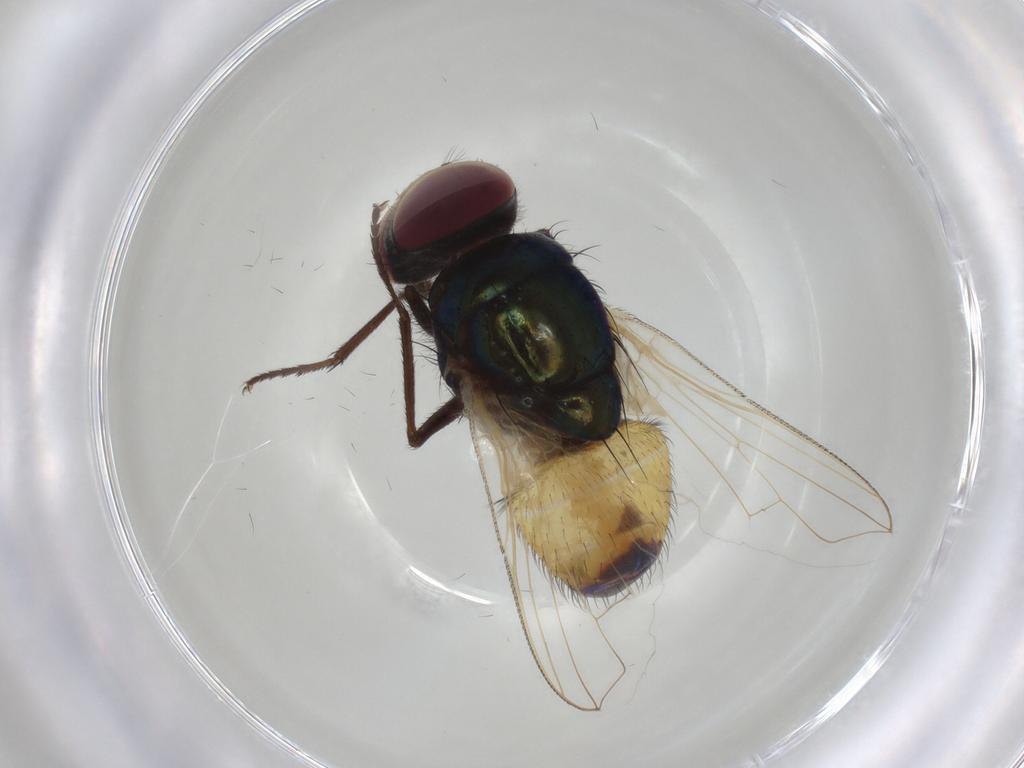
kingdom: Animalia
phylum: Arthropoda
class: Insecta
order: Diptera
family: Muscidae
